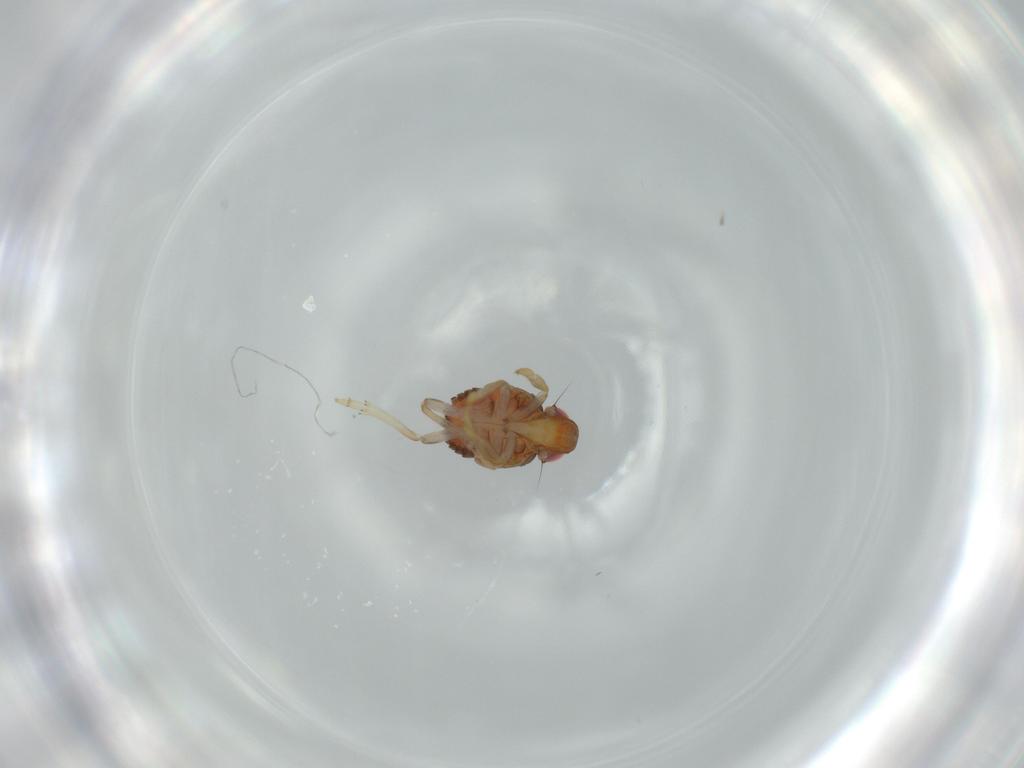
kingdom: Animalia
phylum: Arthropoda
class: Insecta
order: Hemiptera
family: Issidae
